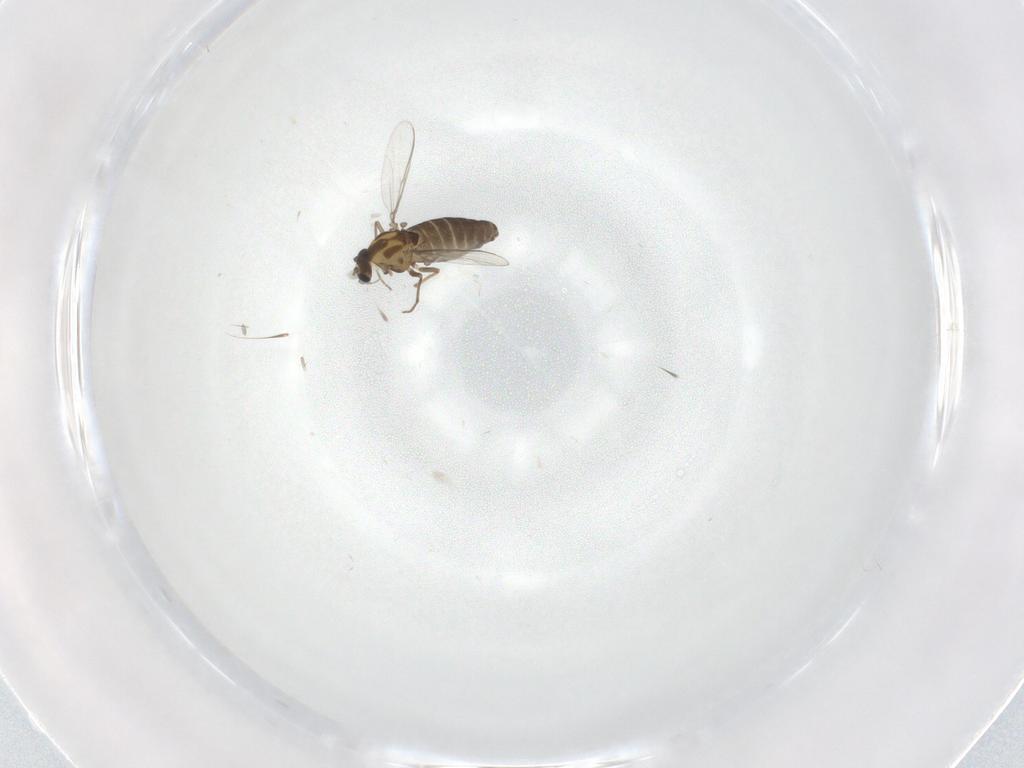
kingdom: Animalia
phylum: Arthropoda
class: Insecta
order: Diptera
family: Chironomidae
